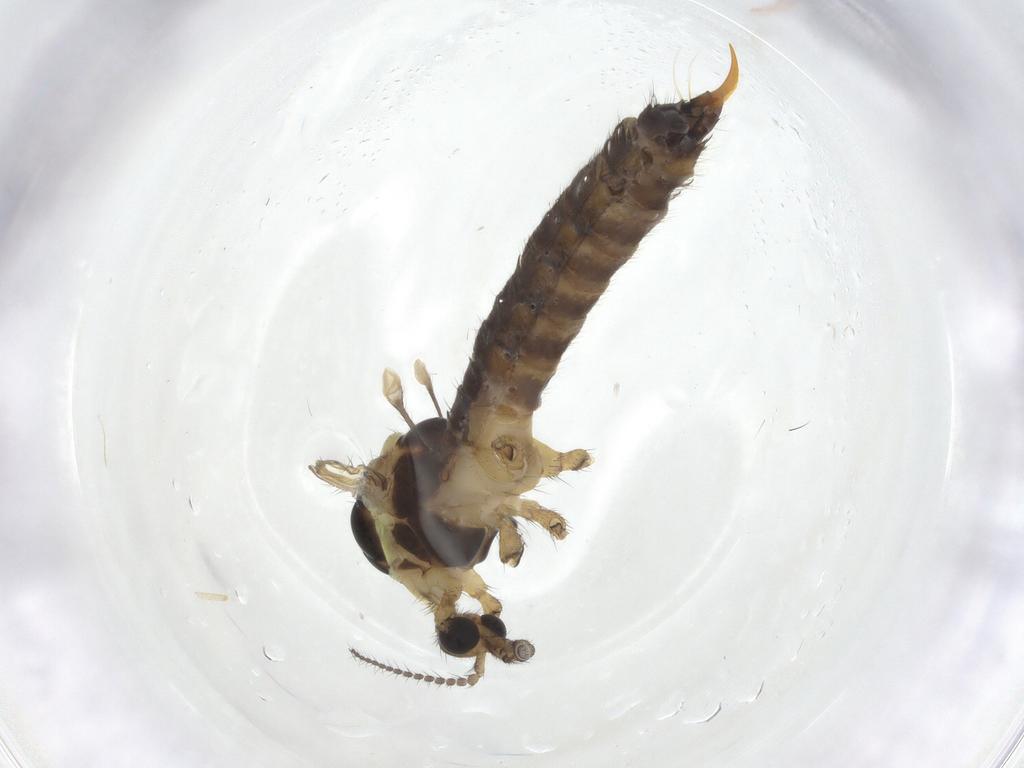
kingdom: Animalia
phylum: Arthropoda
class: Insecta
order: Diptera
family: Limoniidae
